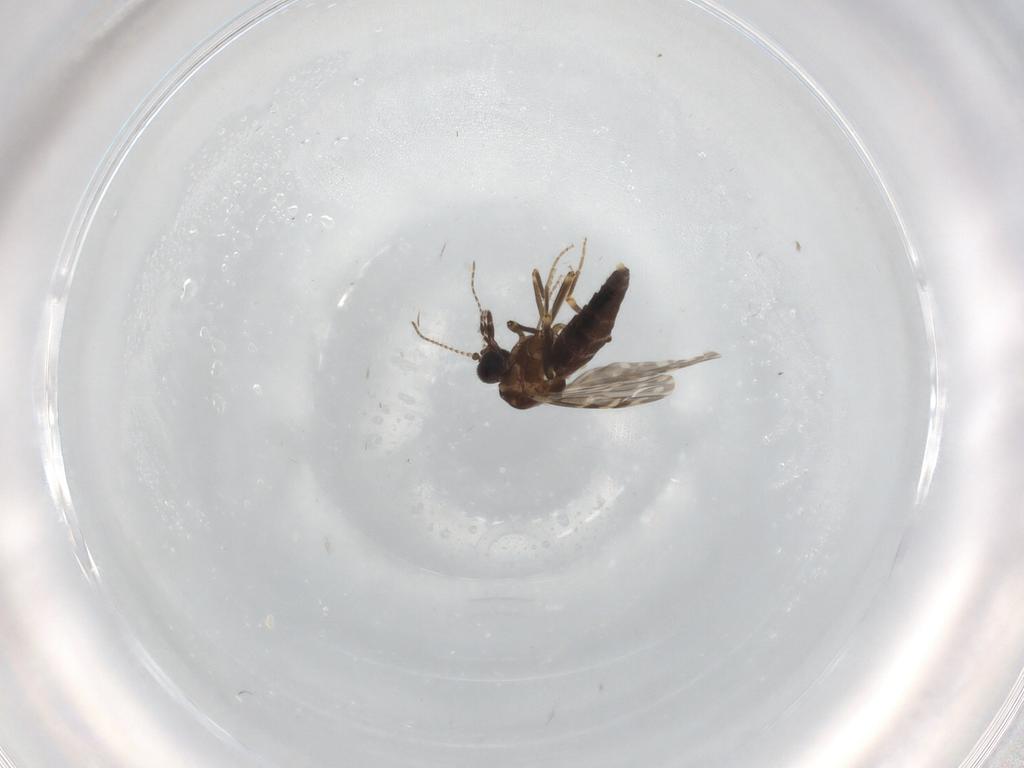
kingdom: Animalia
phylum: Arthropoda
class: Insecta
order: Diptera
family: Ceratopogonidae
